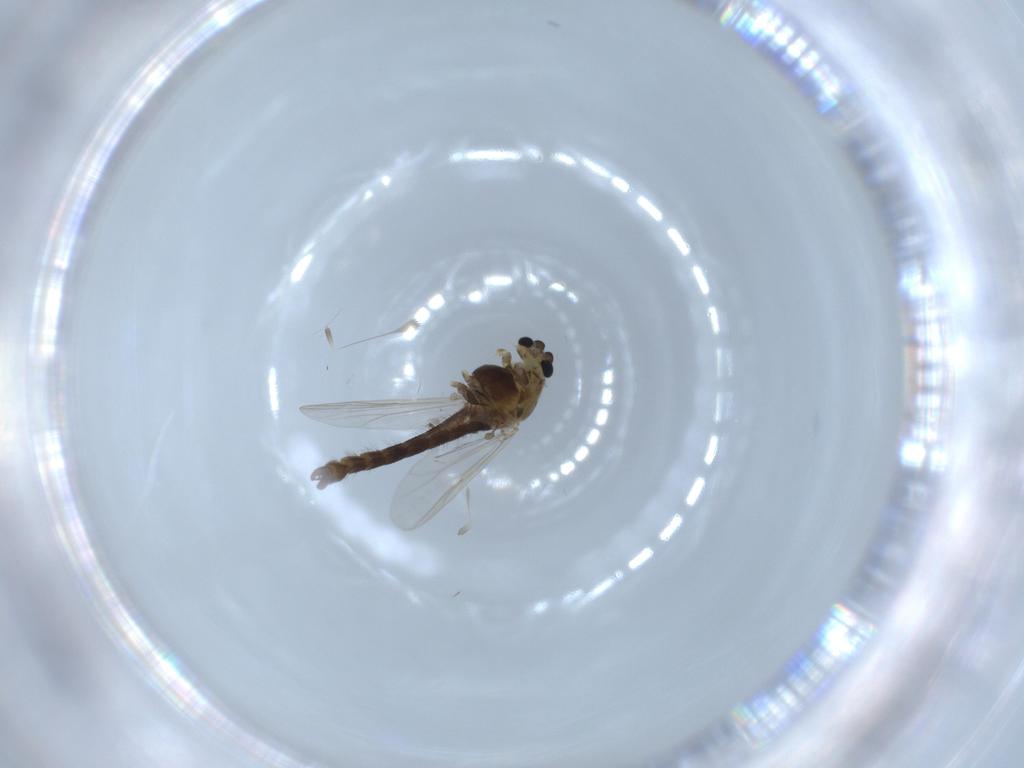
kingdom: Animalia
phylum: Arthropoda
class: Insecta
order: Diptera
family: Chironomidae
